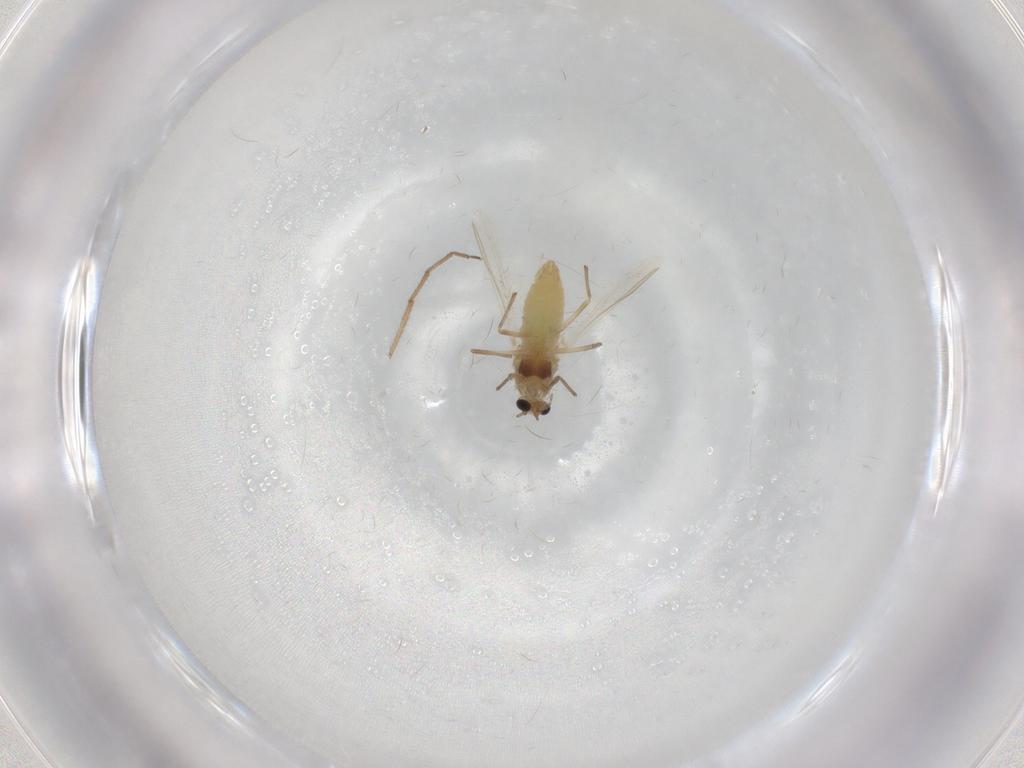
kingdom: Animalia
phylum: Arthropoda
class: Insecta
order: Diptera
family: Chironomidae
